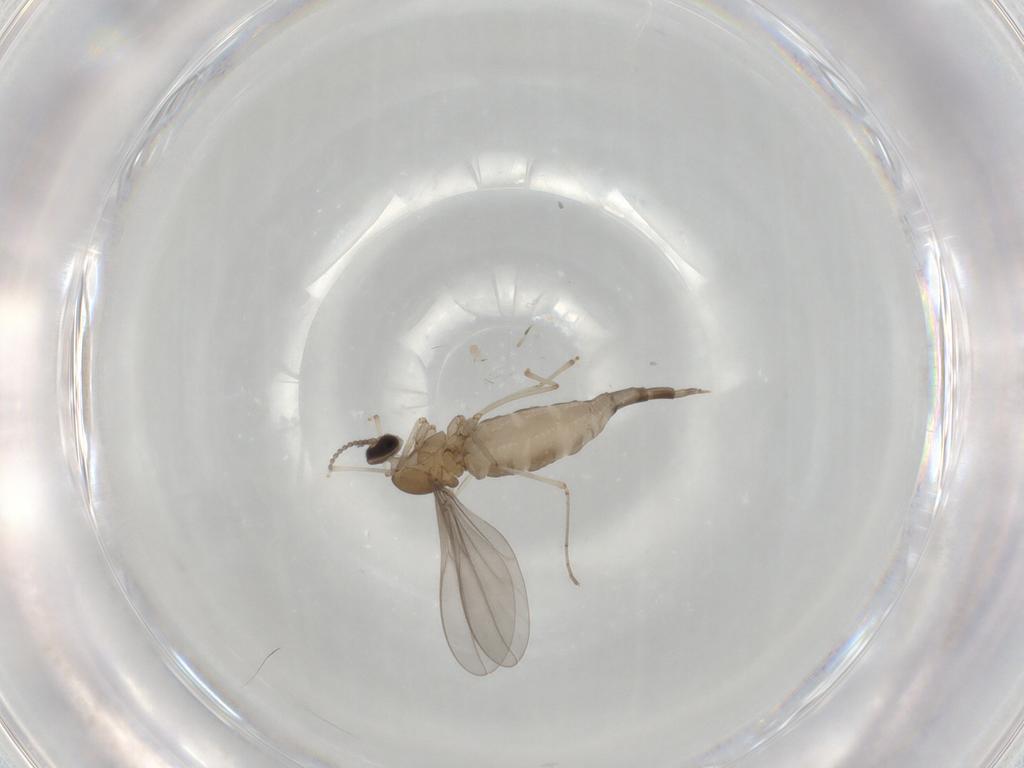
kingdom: Animalia
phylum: Arthropoda
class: Insecta
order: Diptera
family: Cecidomyiidae
